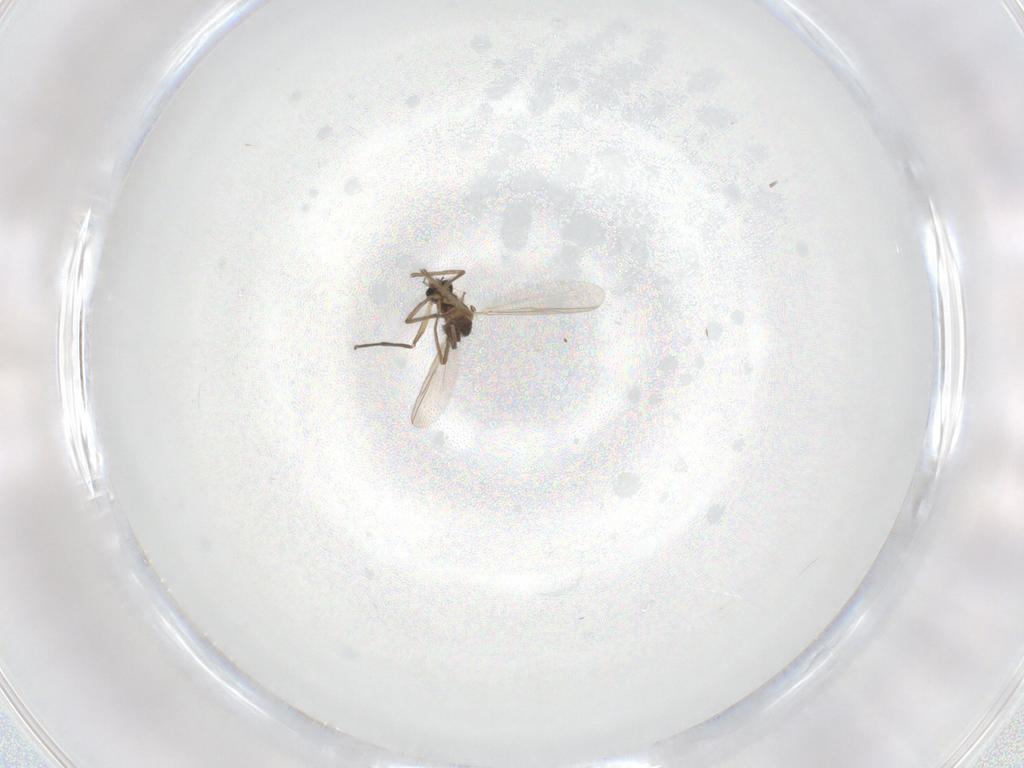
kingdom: Animalia
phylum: Arthropoda
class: Insecta
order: Diptera
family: Chironomidae
